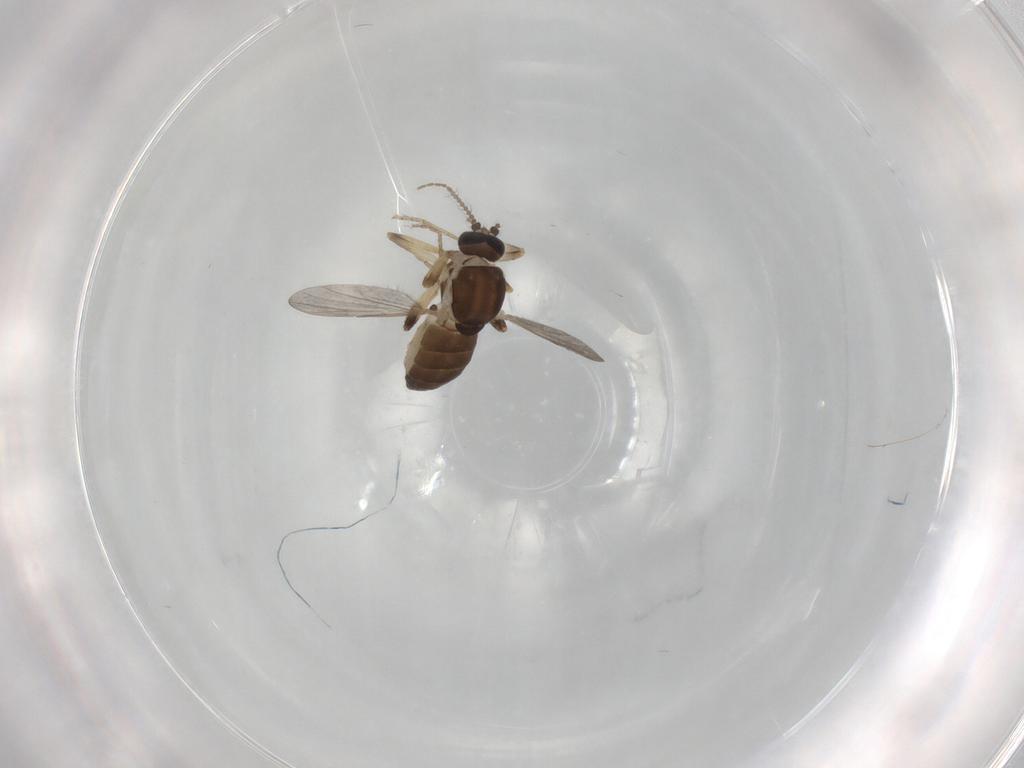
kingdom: Animalia
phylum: Arthropoda
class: Insecta
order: Diptera
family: Ceratopogonidae
